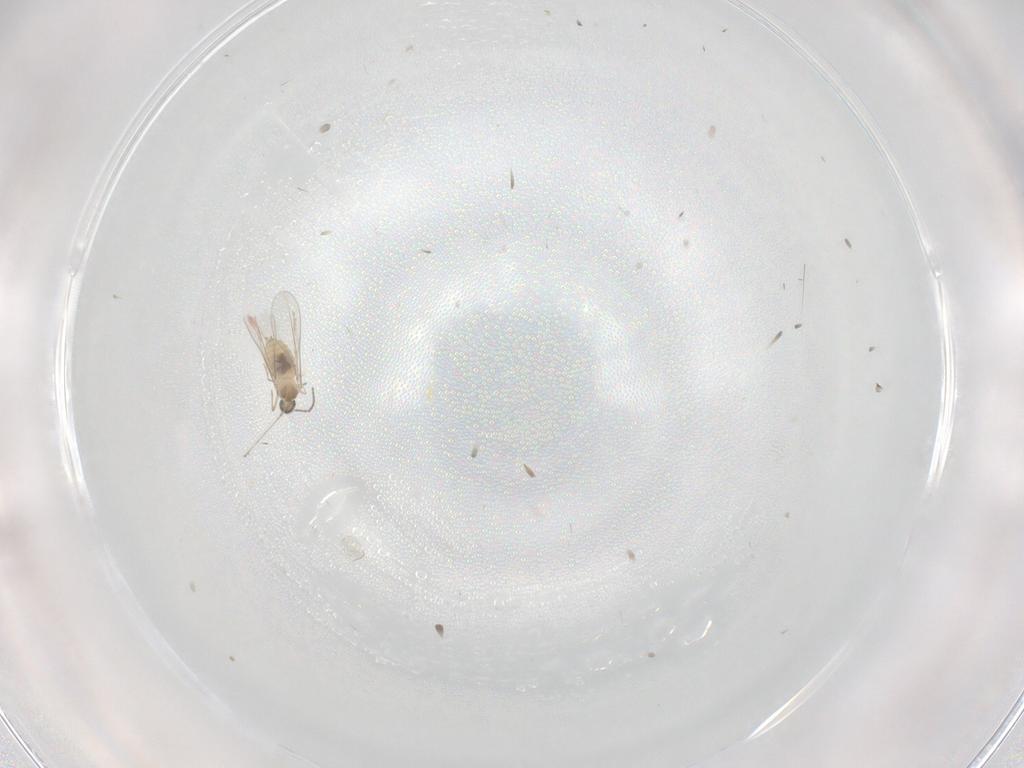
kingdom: Animalia
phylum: Arthropoda
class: Insecta
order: Diptera
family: Cecidomyiidae
